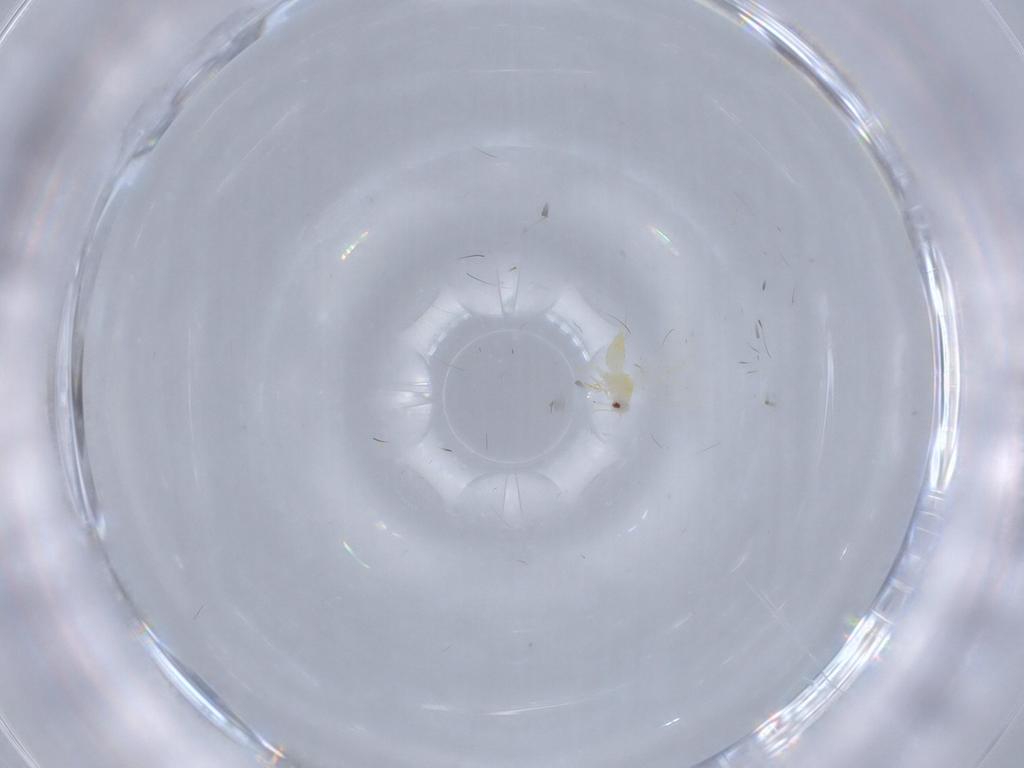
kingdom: Animalia
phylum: Arthropoda
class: Insecta
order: Hemiptera
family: Aleyrodidae
